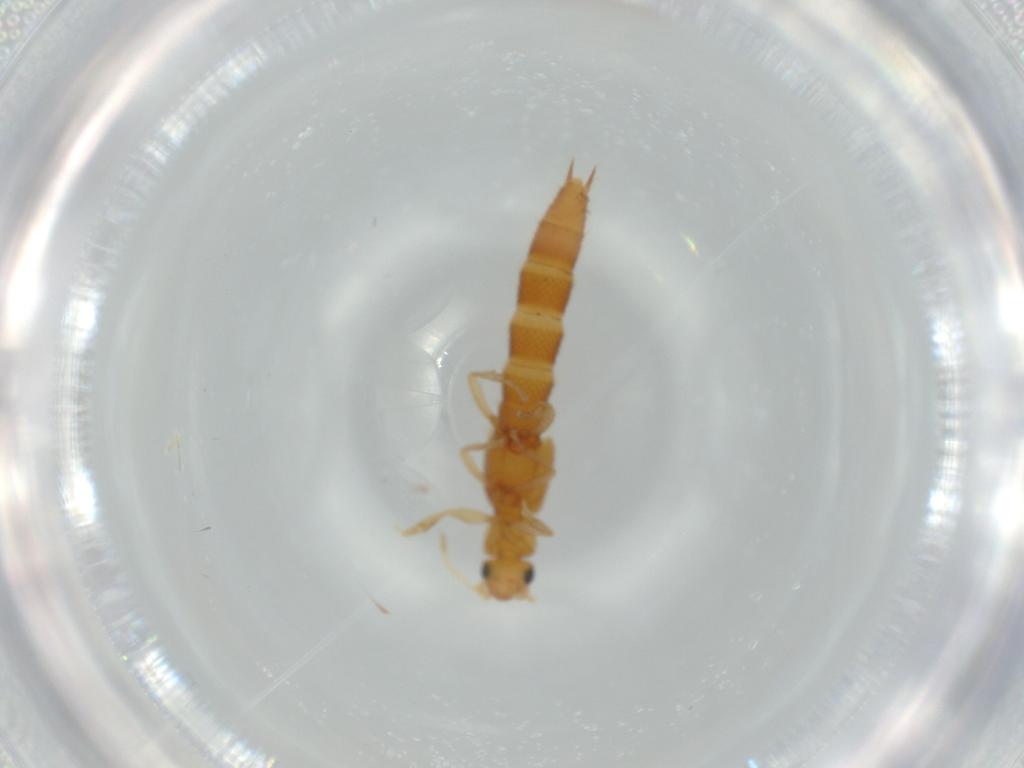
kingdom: Animalia
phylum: Arthropoda
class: Insecta
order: Coleoptera
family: Staphylinidae
